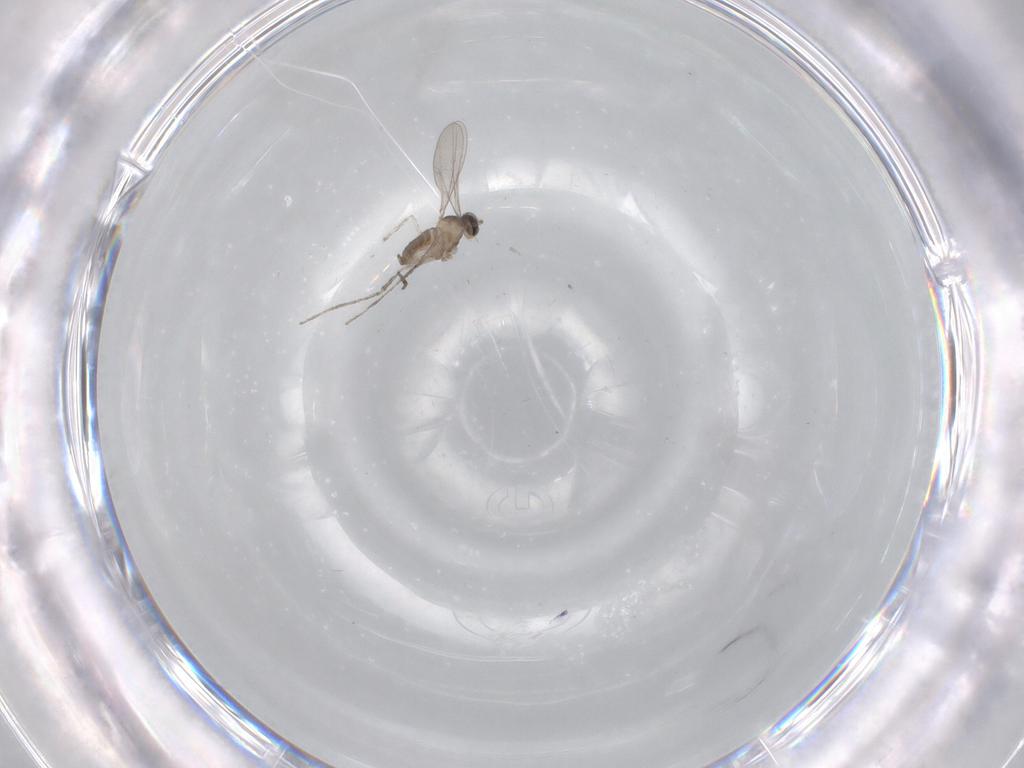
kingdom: Animalia
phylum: Arthropoda
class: Insecta
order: Diptera
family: Cecidomyiidae
